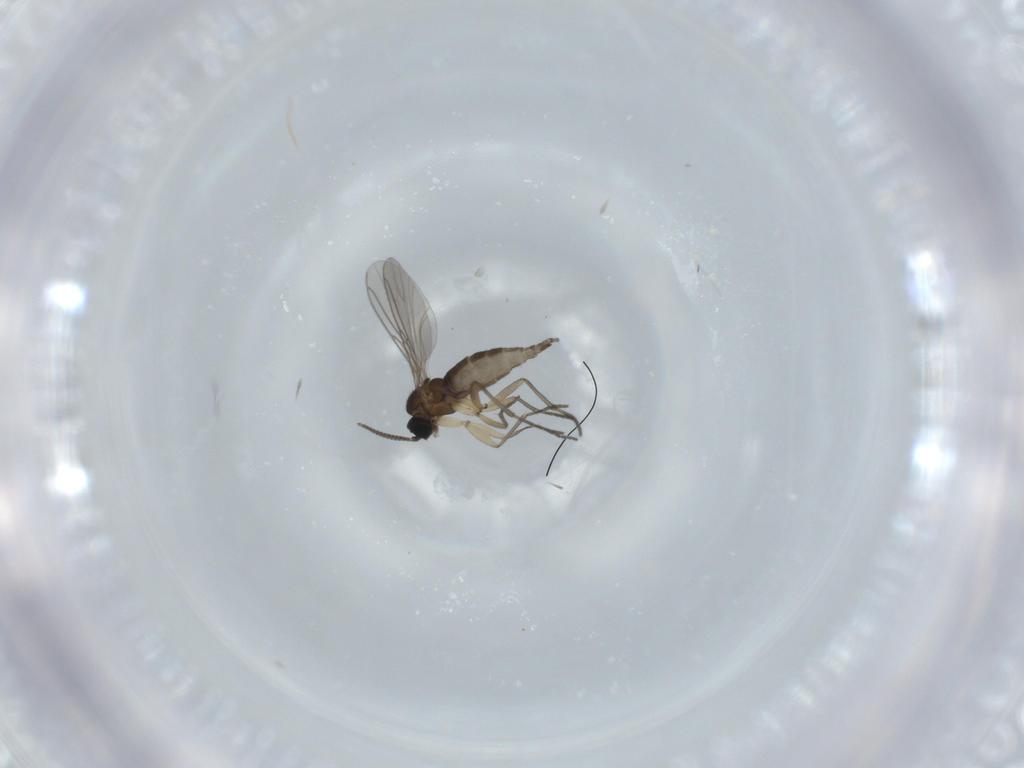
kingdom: Animalia
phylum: Arthropoda
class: Insecta
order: Diptera
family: Sciaridae
